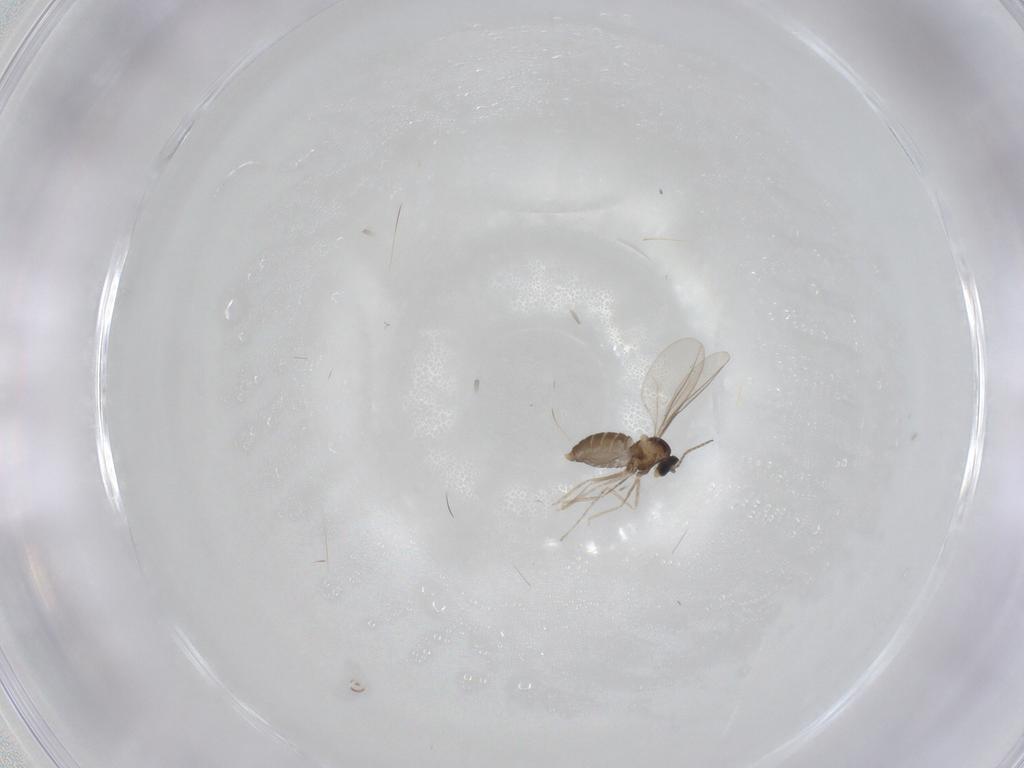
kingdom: Animalia
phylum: Arthropoda
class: Insecta
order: Diptera
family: Cecidomyiidae
